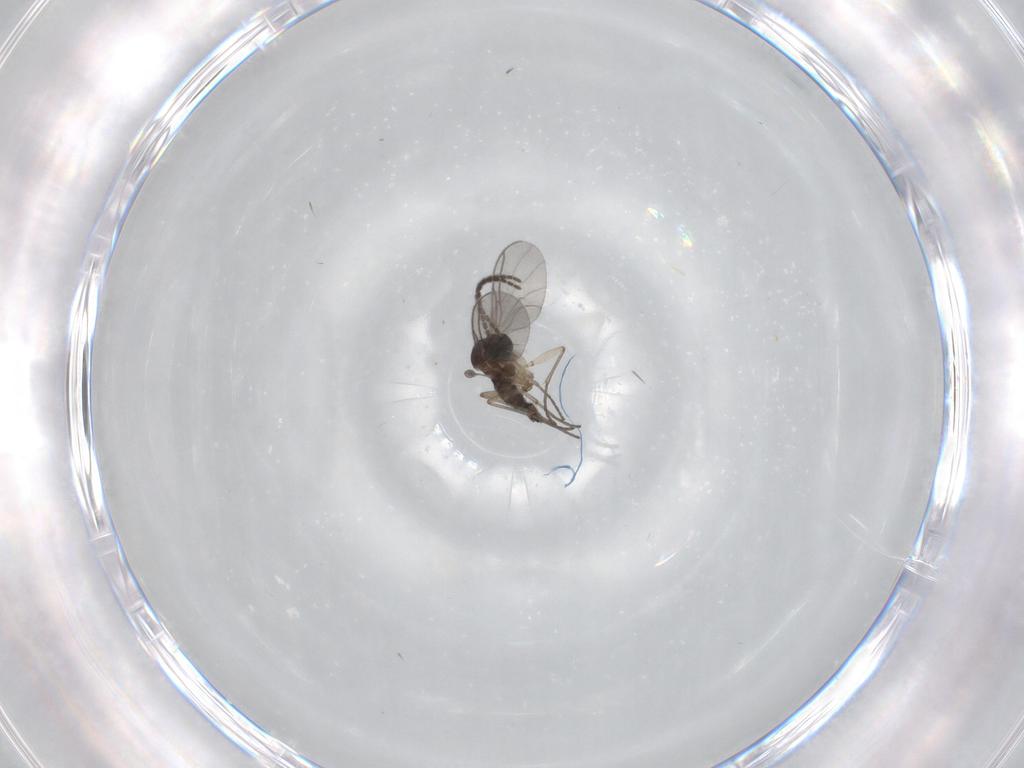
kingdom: Animalia
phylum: Arthropoda
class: Insecta
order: Diptera
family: Sciaridae
